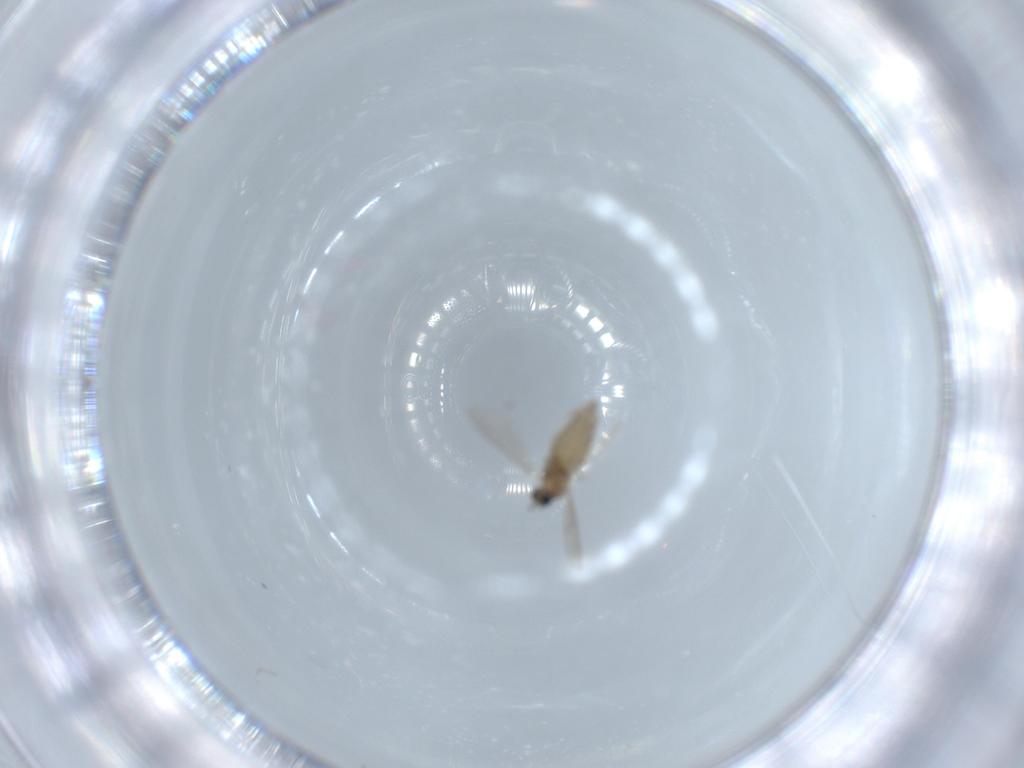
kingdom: Animalia
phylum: Arthropoda
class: Insecta
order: Diptera
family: Cecidomyiidae
